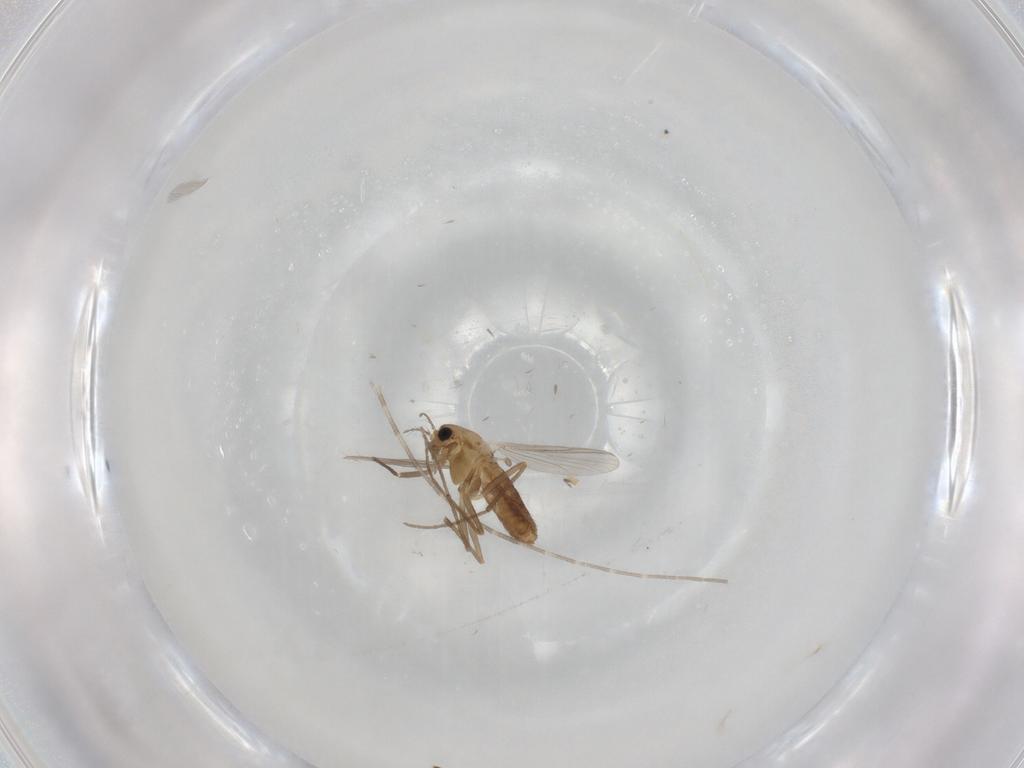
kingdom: Animalia
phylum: Arthropoda
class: Insecta
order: Diptera
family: Chironomidae
